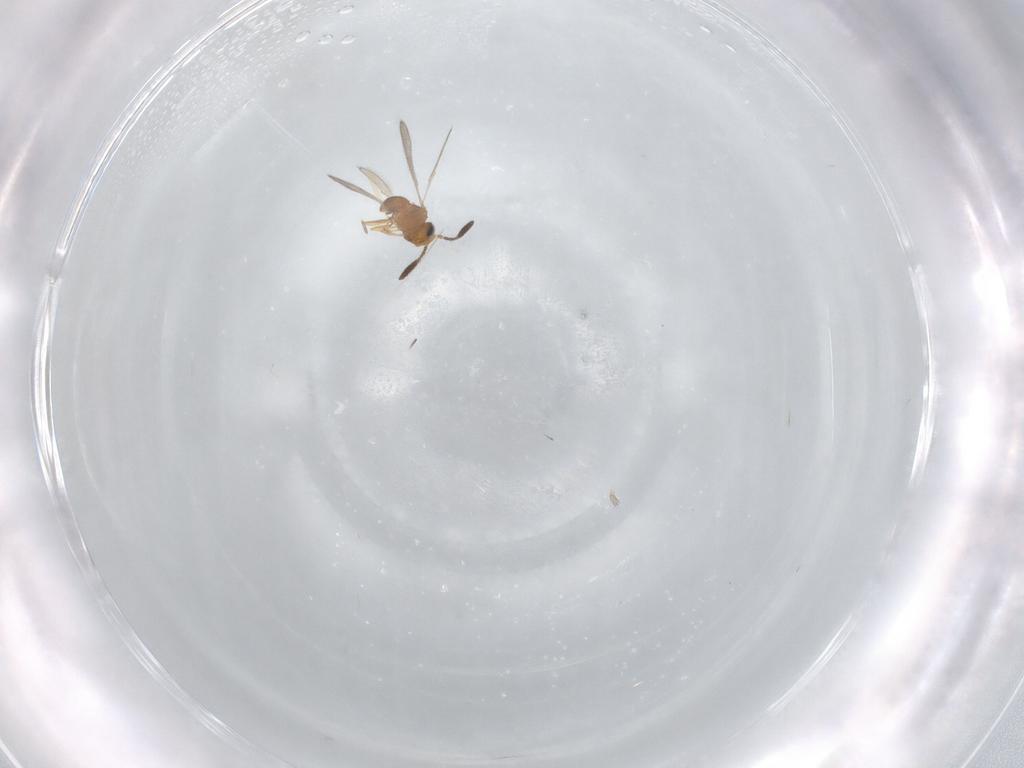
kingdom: Animalia
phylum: Arthropoda
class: Insecta
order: Hymenoptera
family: Scelionidae
